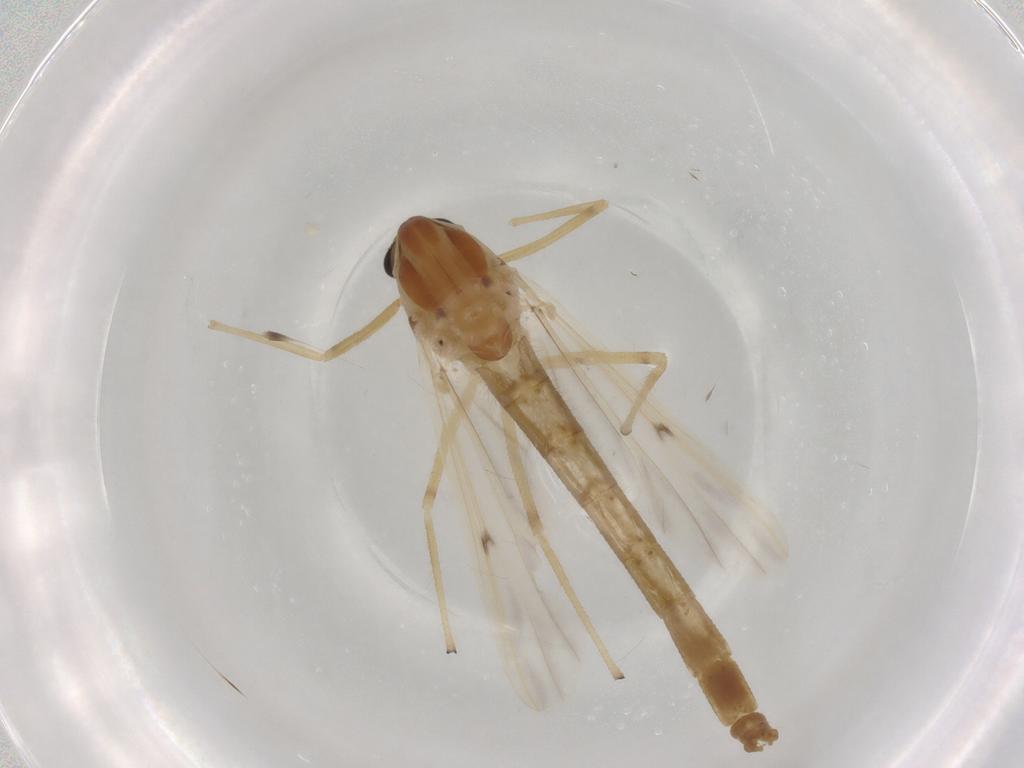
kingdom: Animalia
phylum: Arthropoda
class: Insecta
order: Diptera
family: Chironomidae
